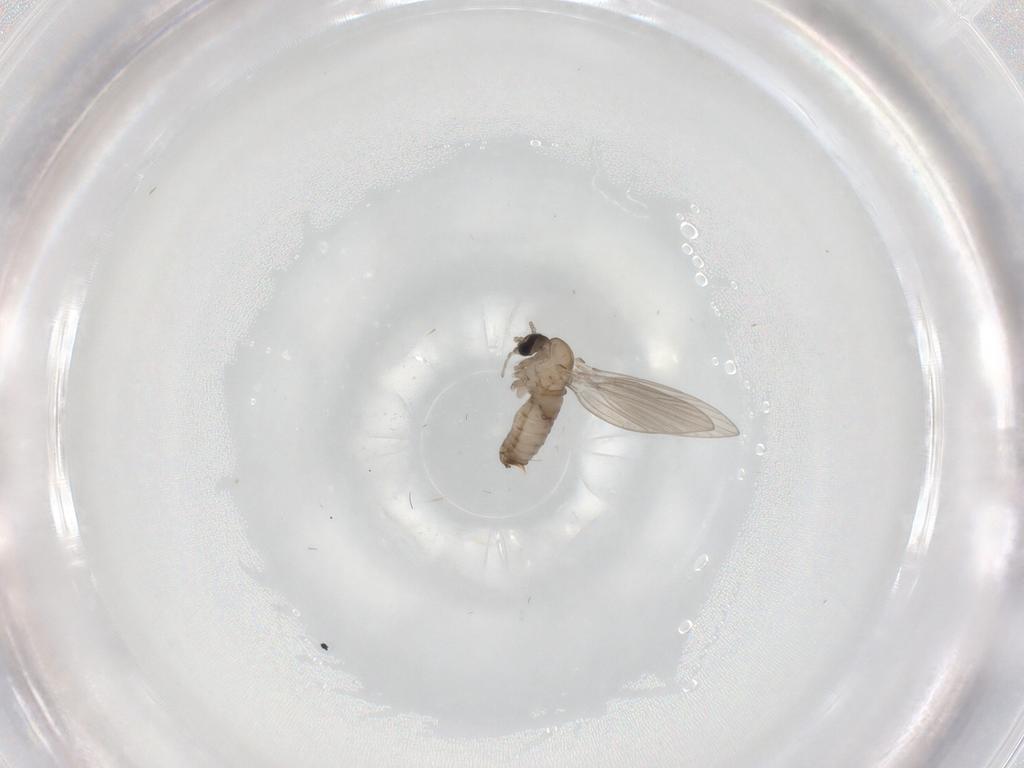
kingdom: Animalia
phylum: Arthropoda
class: Insecta
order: Diptera
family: Psychodidae
